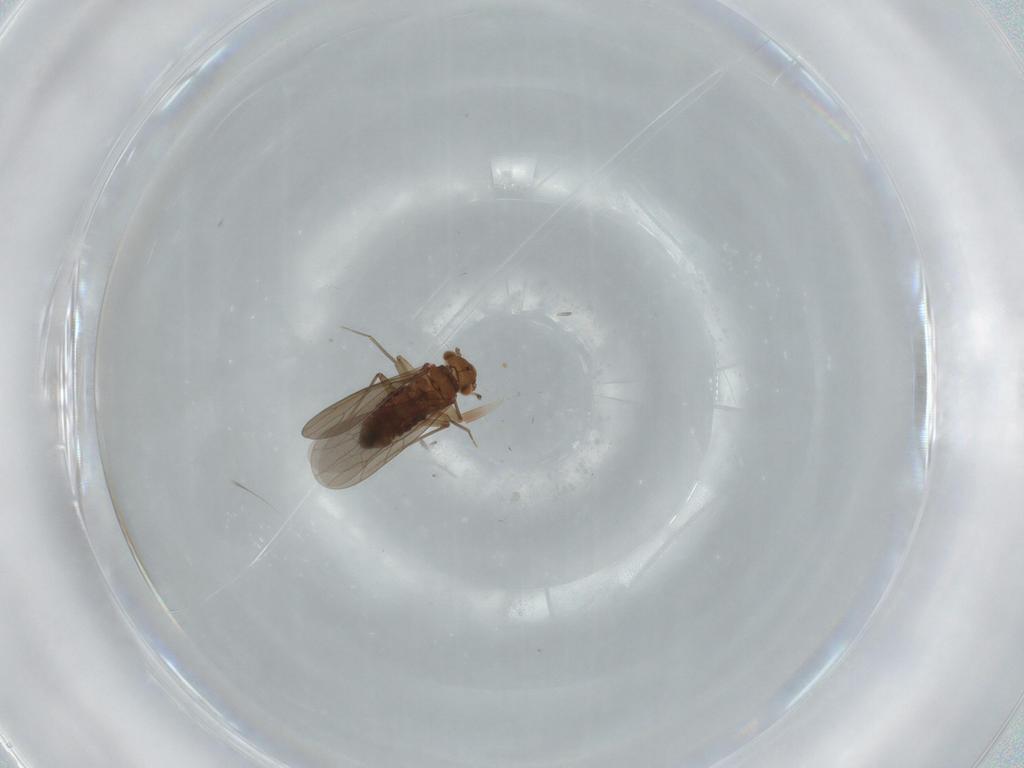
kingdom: Animalia
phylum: Arthropoda
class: Insecta
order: Psocodea
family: Lepidopsocidae
